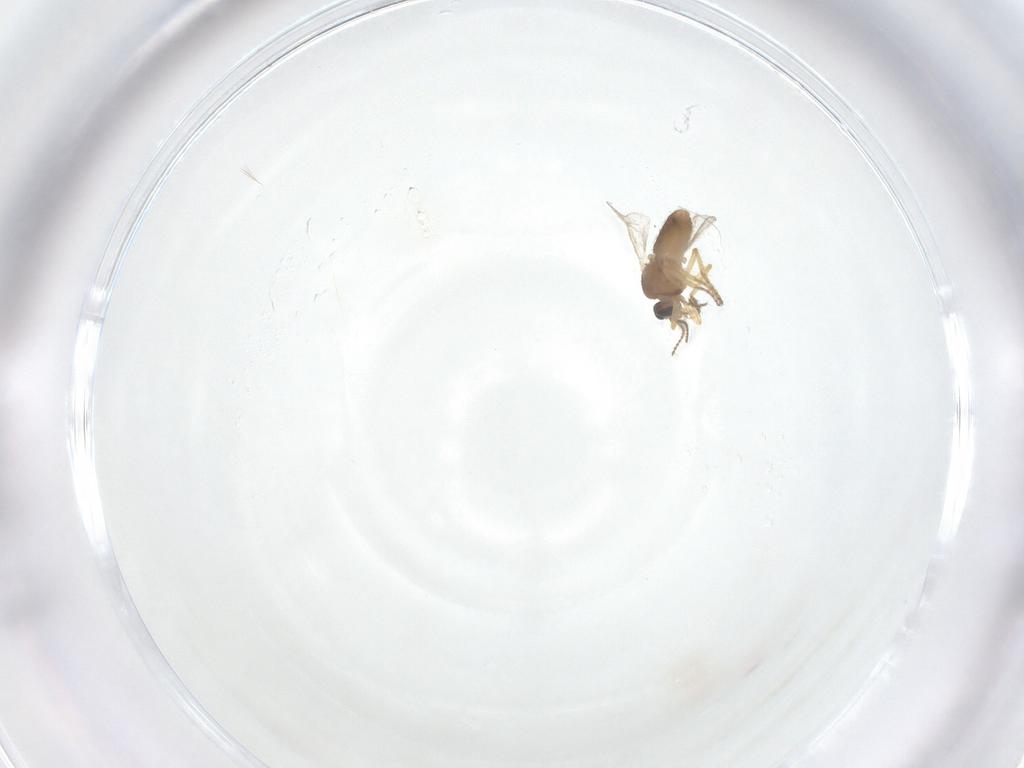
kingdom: Animalia
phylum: Arthropoda
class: Insecta
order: Diptera
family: Ceratopogonidae
